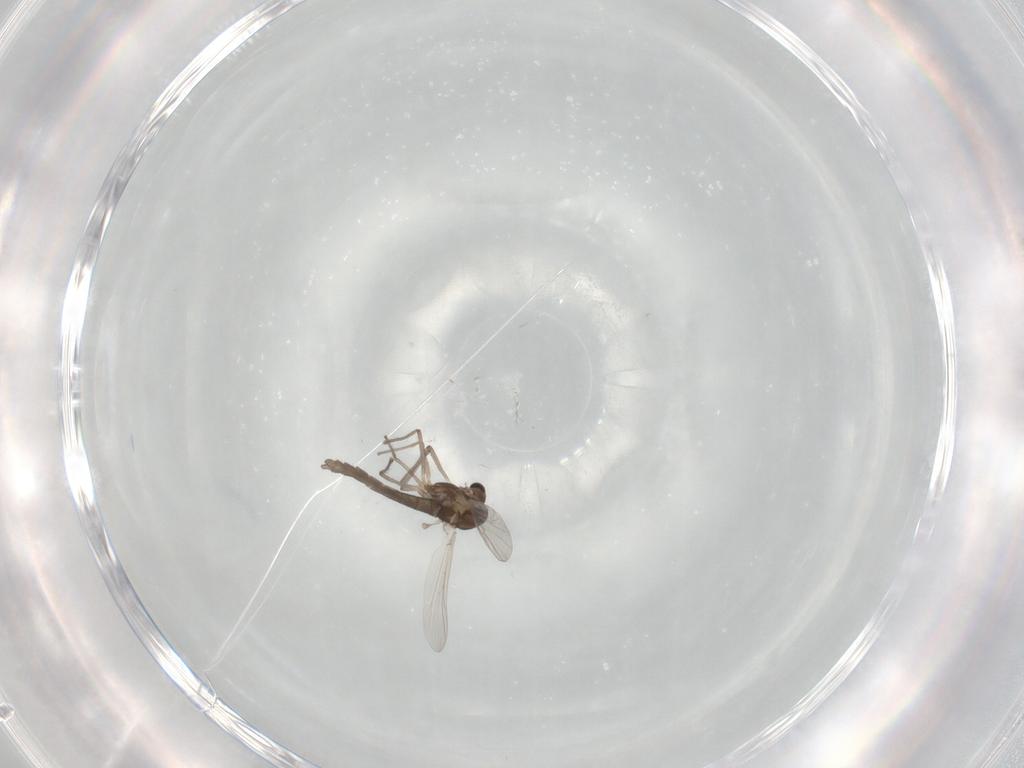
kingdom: Animalia
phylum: Arthropoda
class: Insecta
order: Diptera
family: Chironomidae
